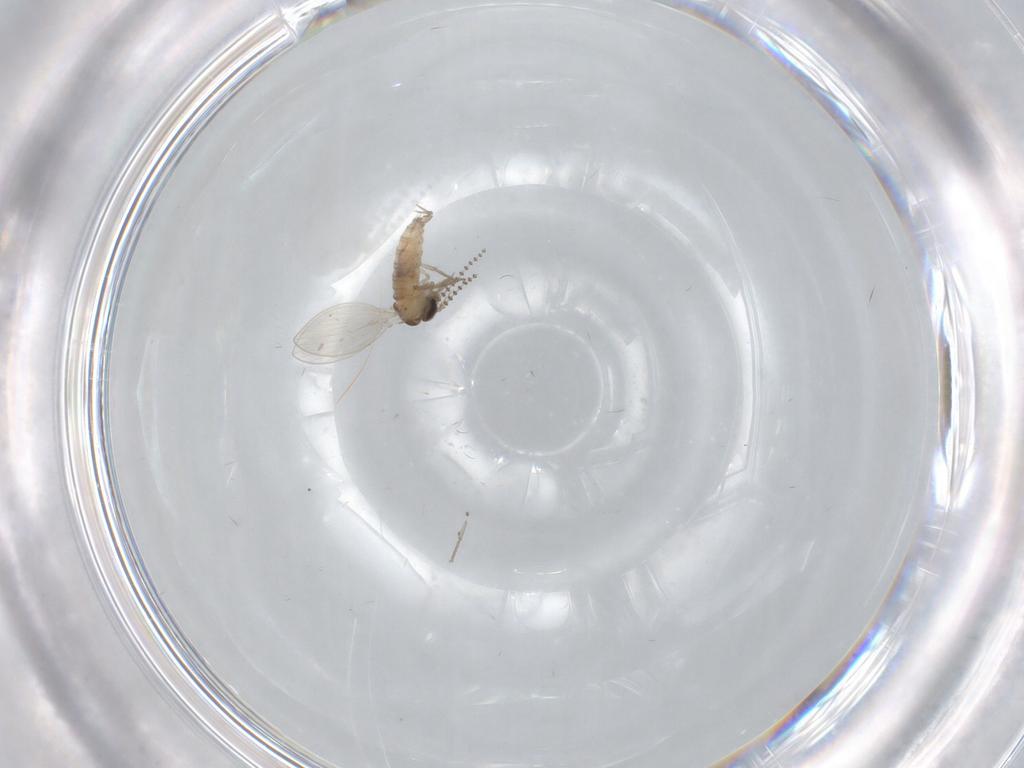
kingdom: Animalia
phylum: Arthropoda
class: Insecta
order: Diptera
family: Psychodidae
